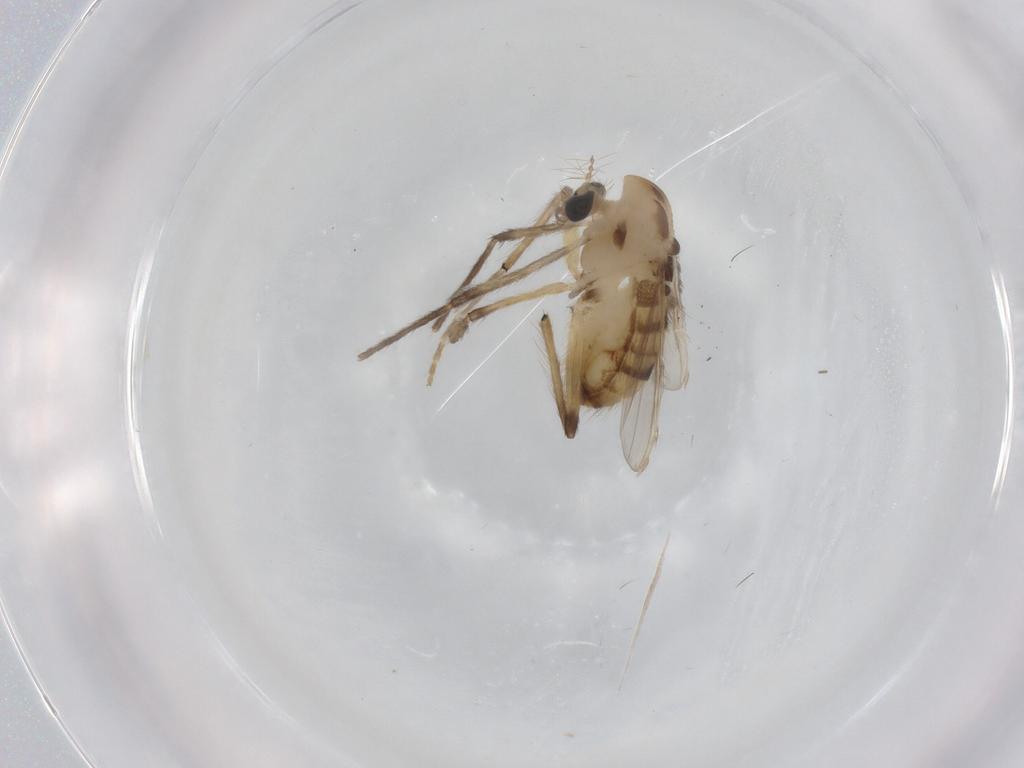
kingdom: Animalia
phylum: Arthropoda
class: Insecta
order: Diptera
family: Chironomidae
